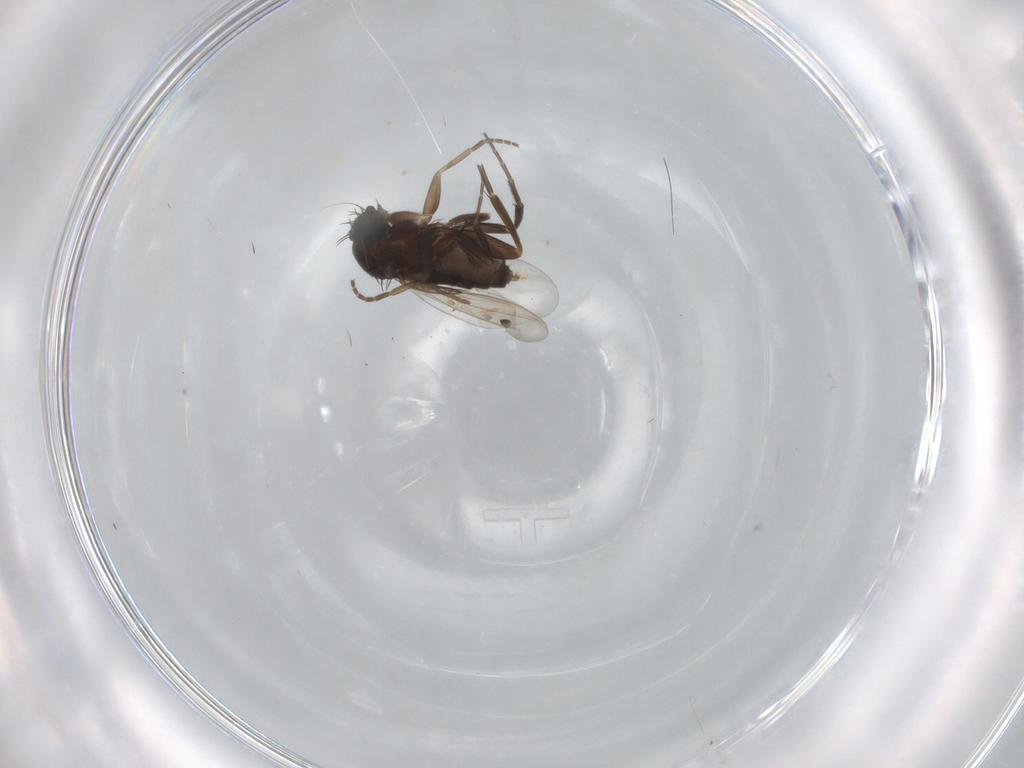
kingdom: Animalia
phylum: Arthropoda
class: Insecta
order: Diptera
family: Phoridae
